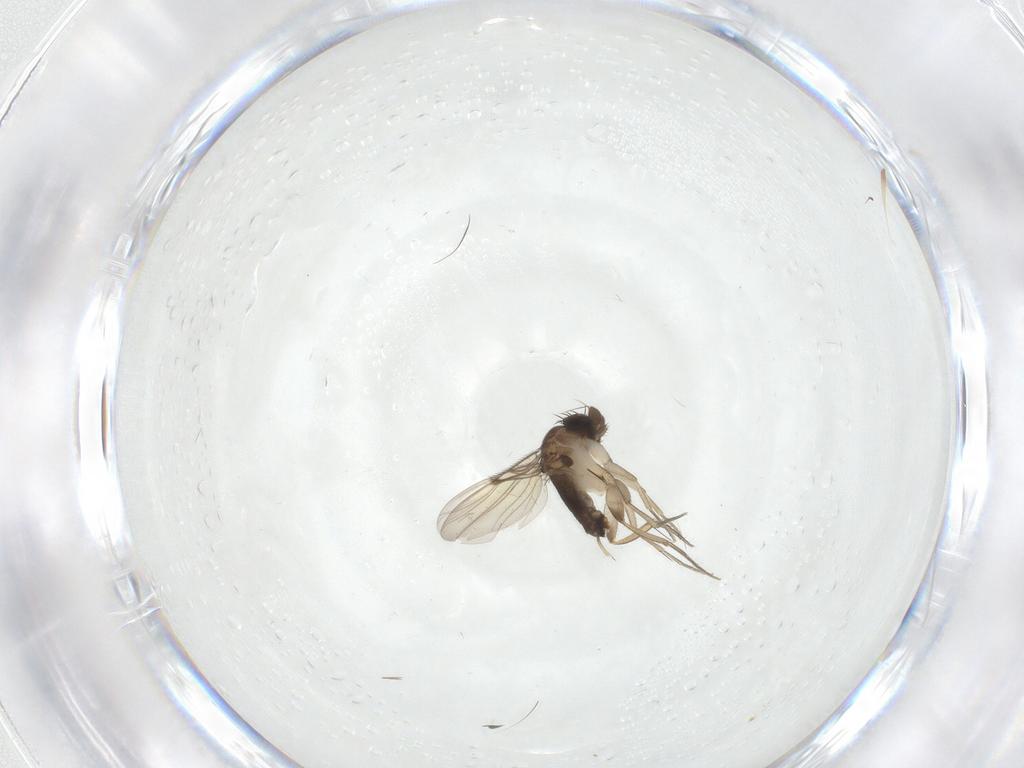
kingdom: Animalia
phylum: Arthropoda
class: Insecta
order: Diptera
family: Phoridae
